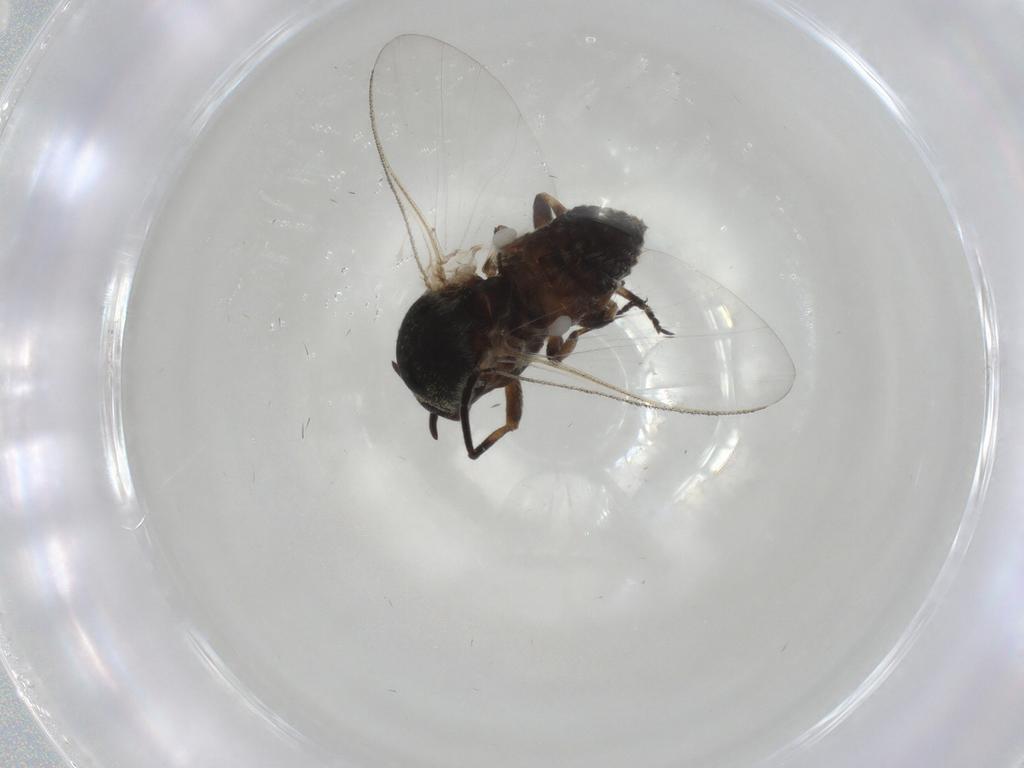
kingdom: Animalia
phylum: Arthropoda
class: Insecta
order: Diptera
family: Sphaeroceridae
